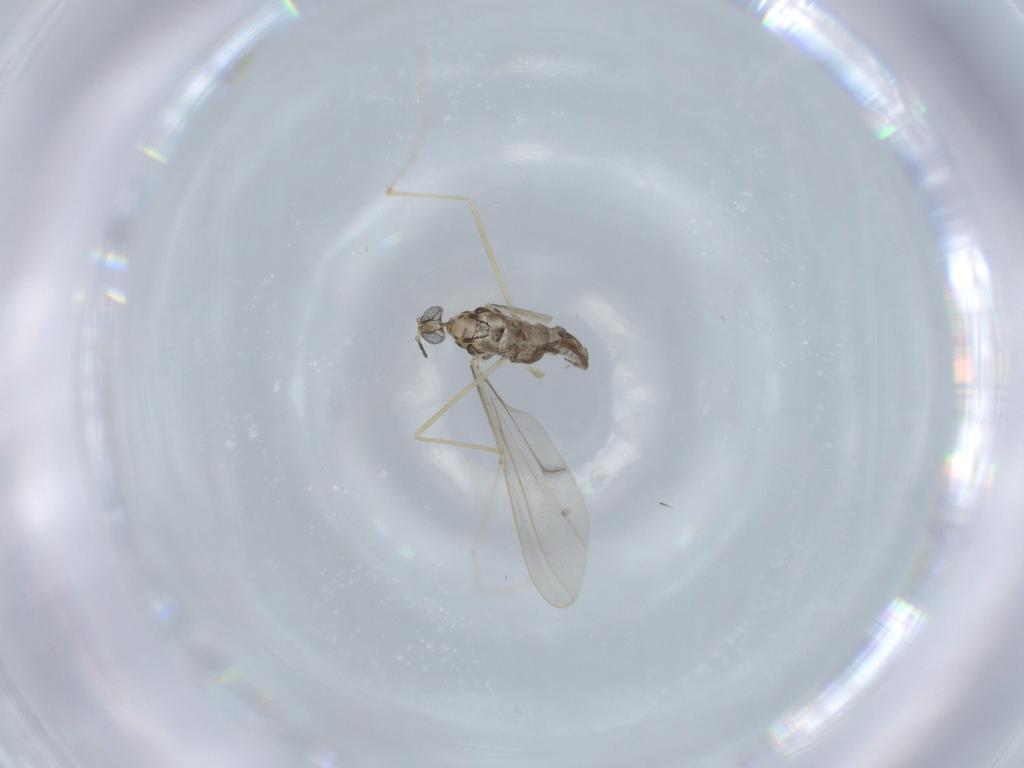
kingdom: Animalia
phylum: Arthropoda
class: Insecta
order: Diptera
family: Cecidomyiidae
